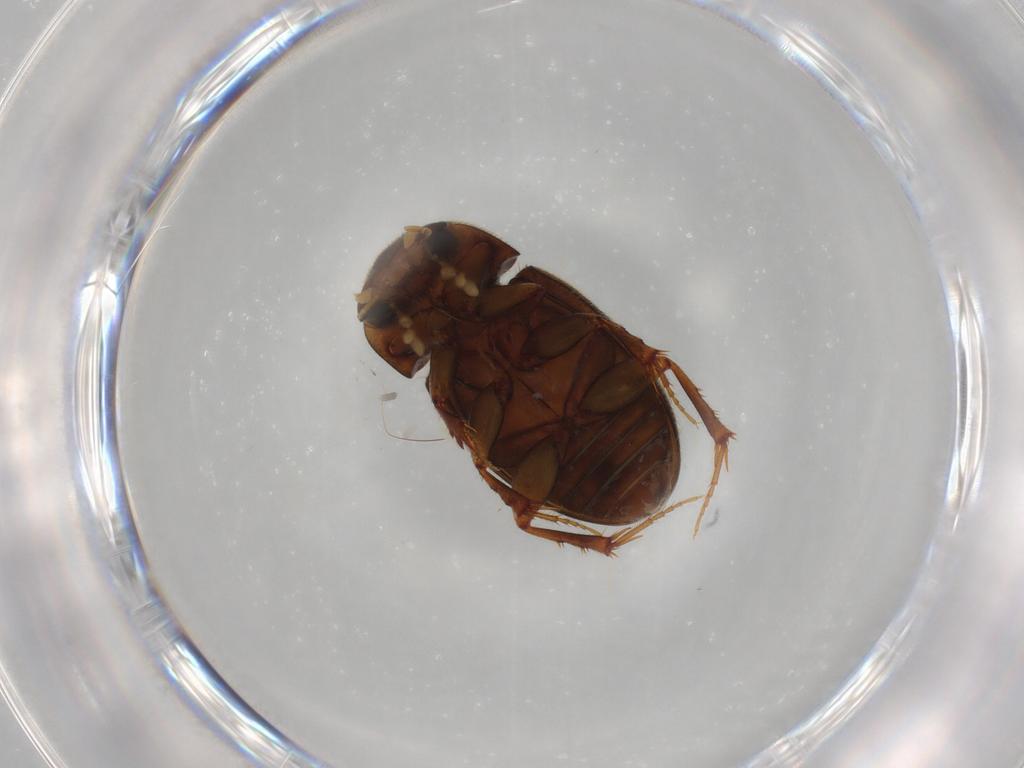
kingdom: Animalia
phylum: Arthropoda
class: Insecta
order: Coleoptera
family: Scarabaeidae
